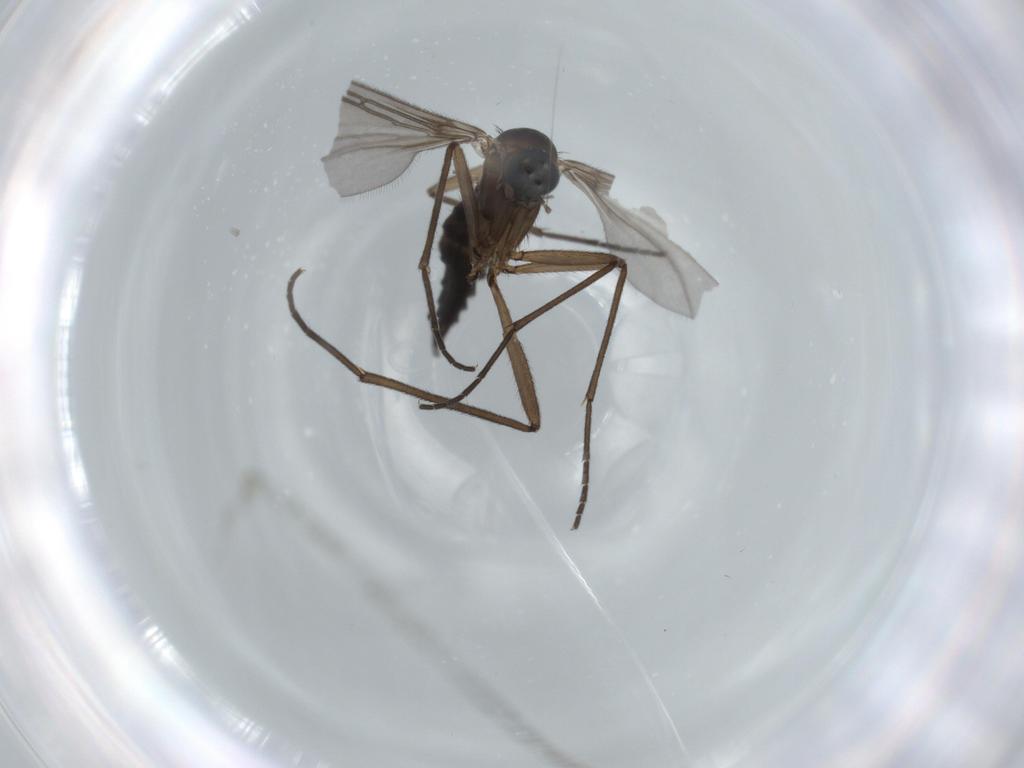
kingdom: Animalia
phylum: Arthropoda
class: Insecta
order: Diptera
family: Sciaridae
